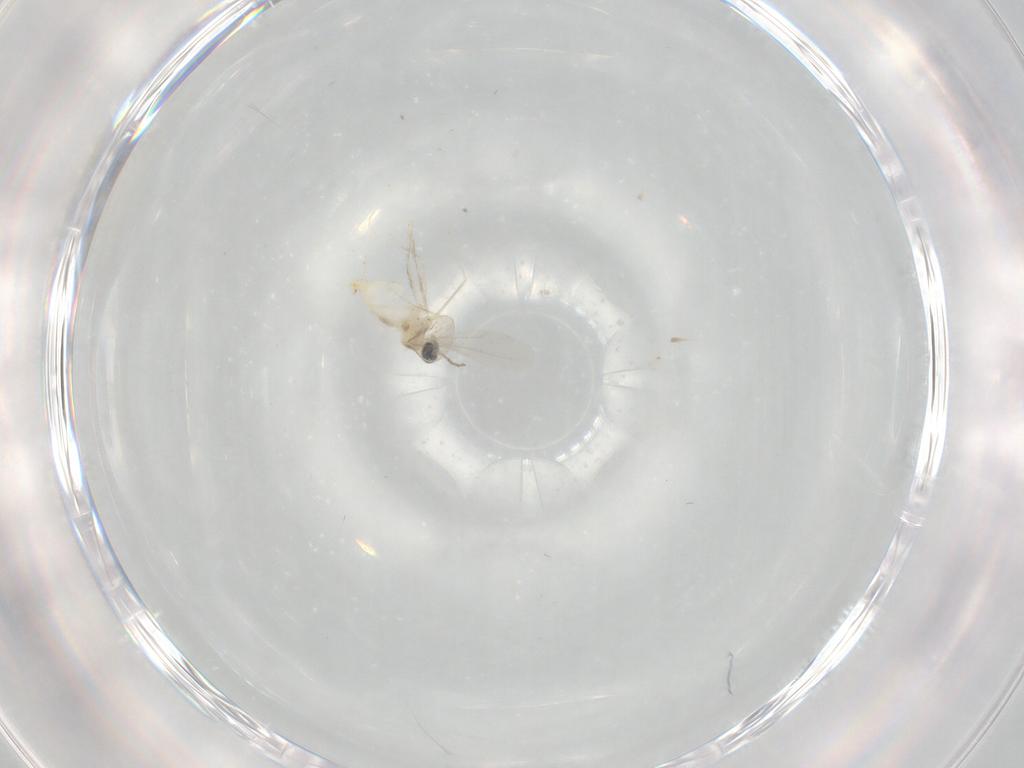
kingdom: Animalia
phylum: Arthropoda
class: Insecta
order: Diptera
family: Cecidomyiidae
